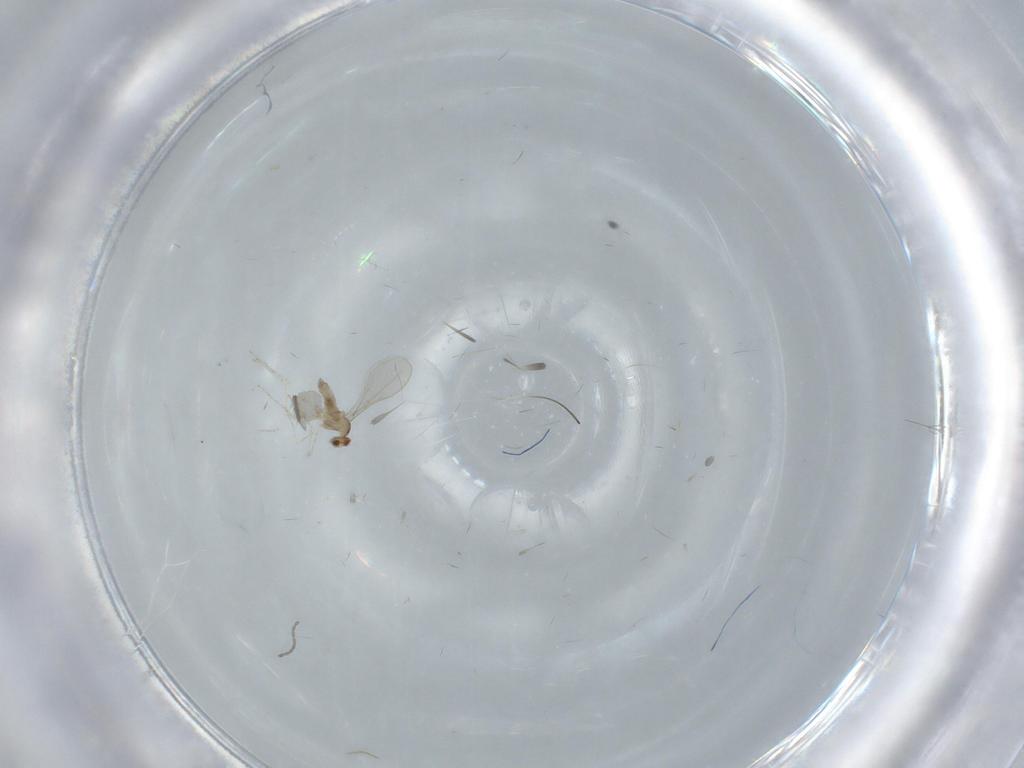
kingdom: Animalia
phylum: Arthropoda
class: Insecta
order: Diptera
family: Cecidomyiidae
